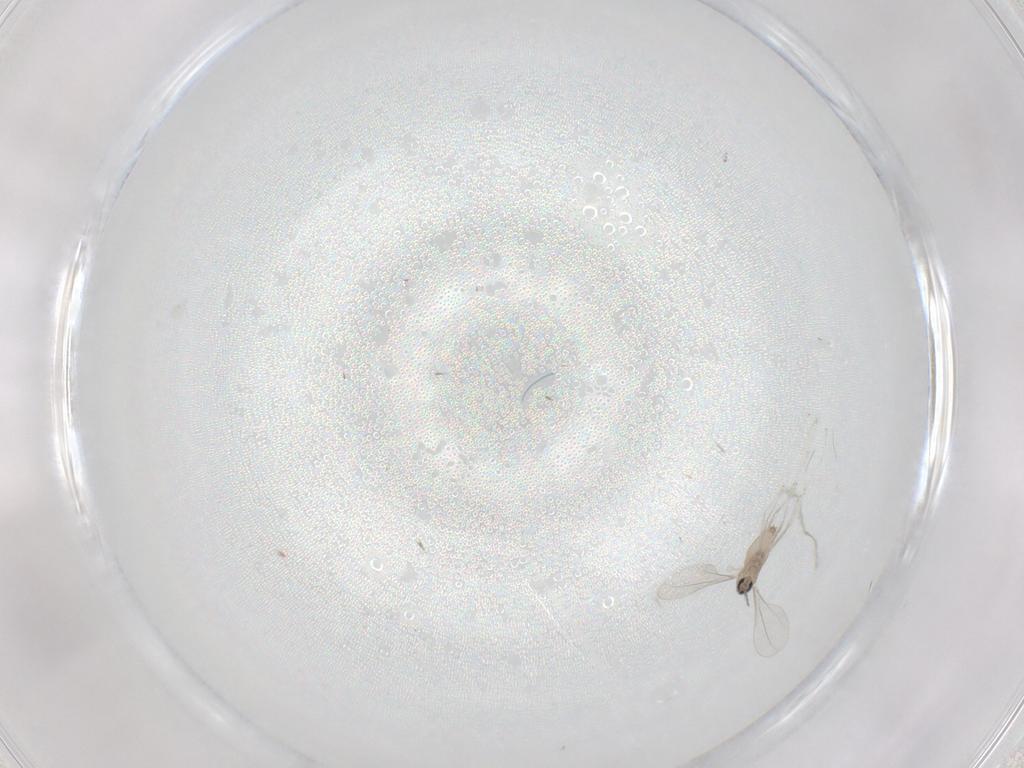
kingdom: Animalia
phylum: Arthropoda
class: Insecta
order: Diptera
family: Cecidomyiidae
